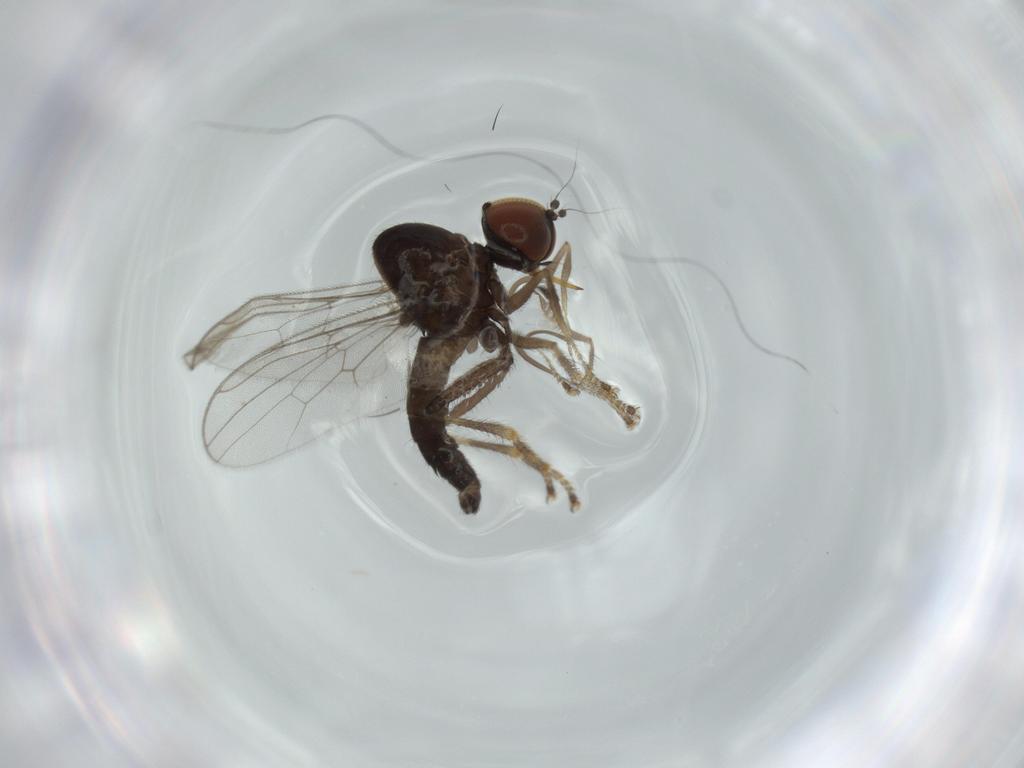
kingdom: Animalia
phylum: Arthropoda
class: Insecta
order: Diptera
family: Hybotidae
